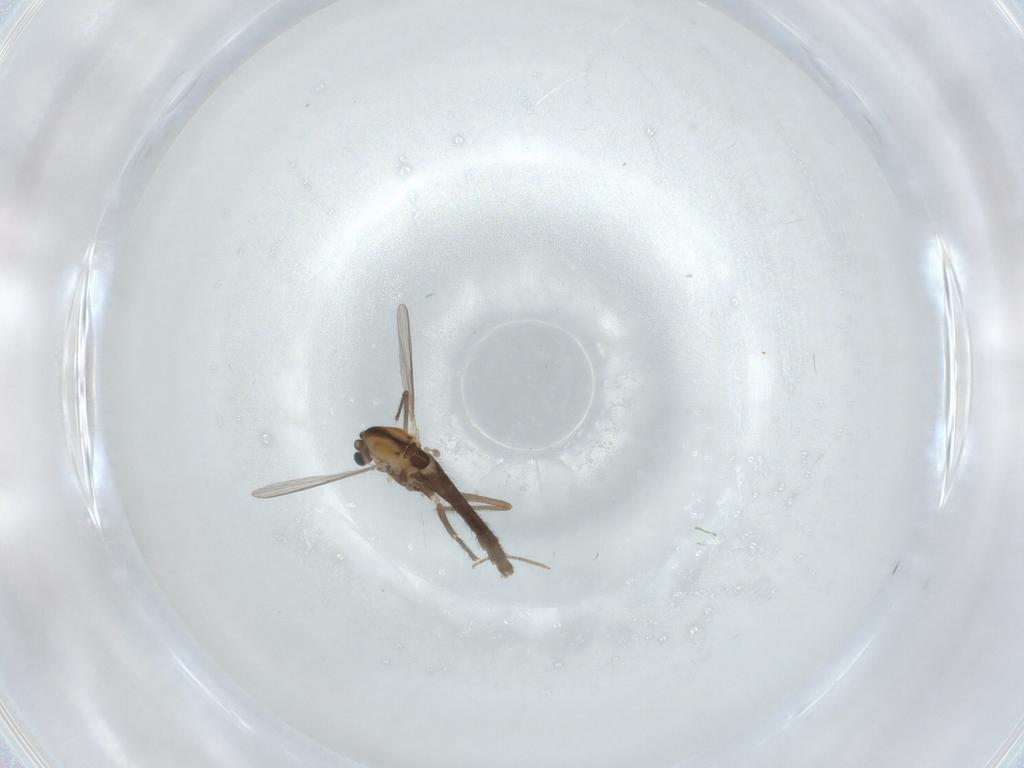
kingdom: Animalia
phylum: Arthropoda
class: Insecta
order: Diptera
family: Chironomidae
